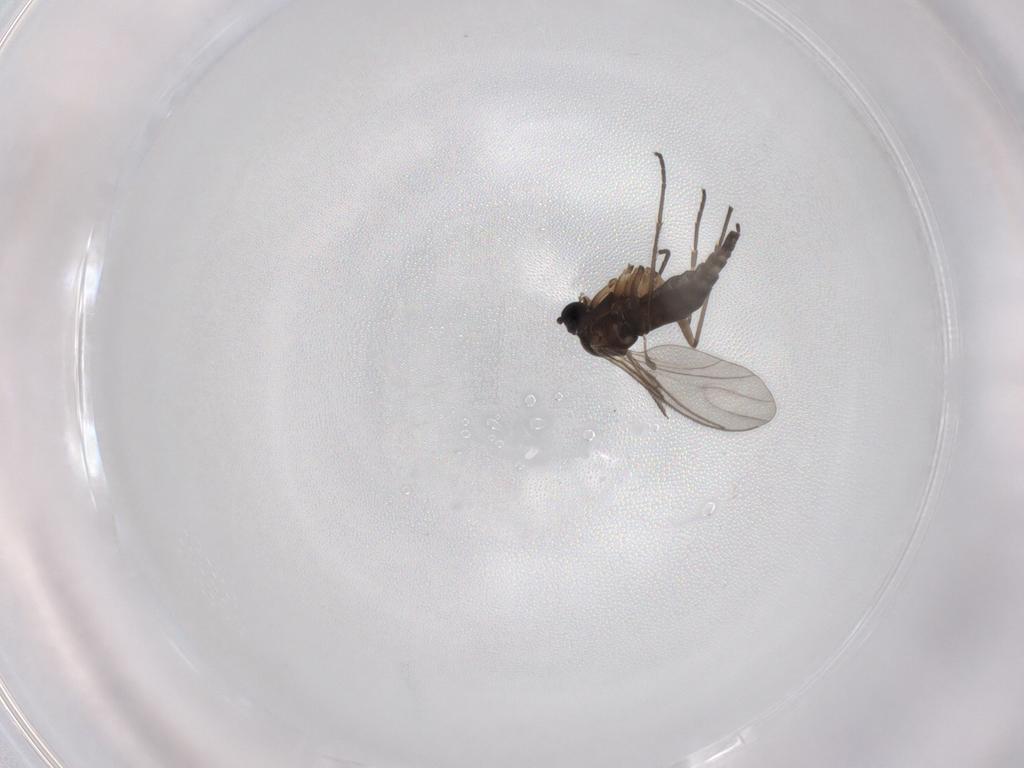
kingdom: Animalia
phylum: Arthropoda
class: Insecta
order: Diptera
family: Sciaridae
